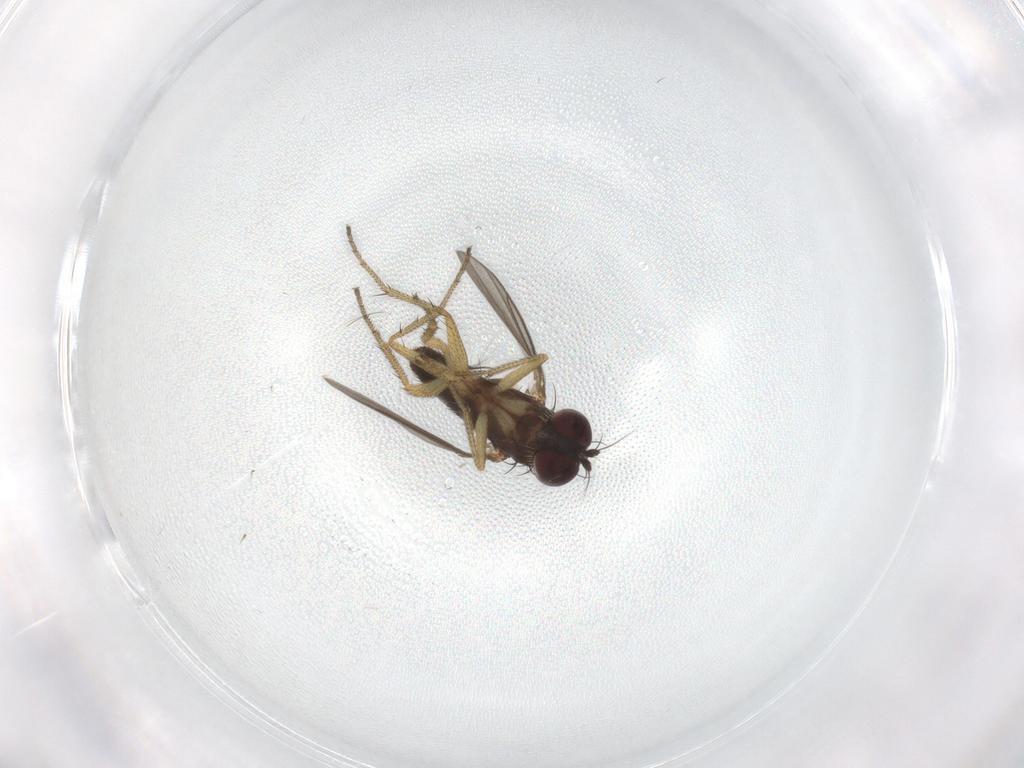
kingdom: Animalia
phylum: Arthropoda
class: Insecta
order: Diptera
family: Dolichopodidae
